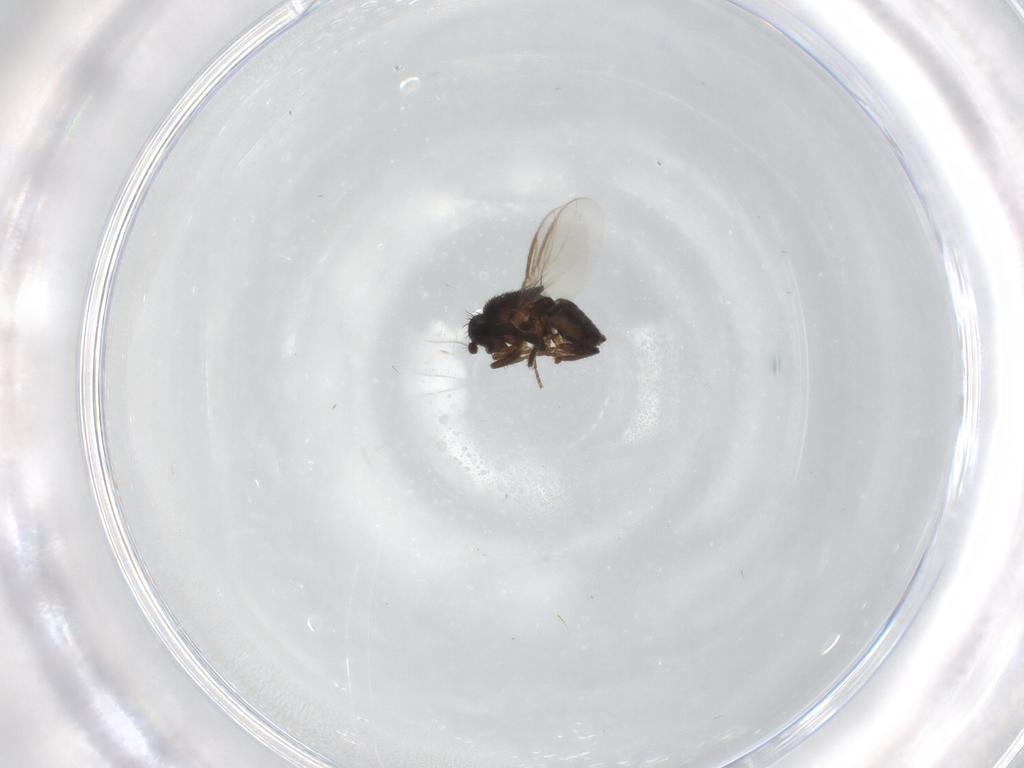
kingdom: Animalia
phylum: Arthropoda
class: Insecta
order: Diptera
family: Sphaeroceridae
